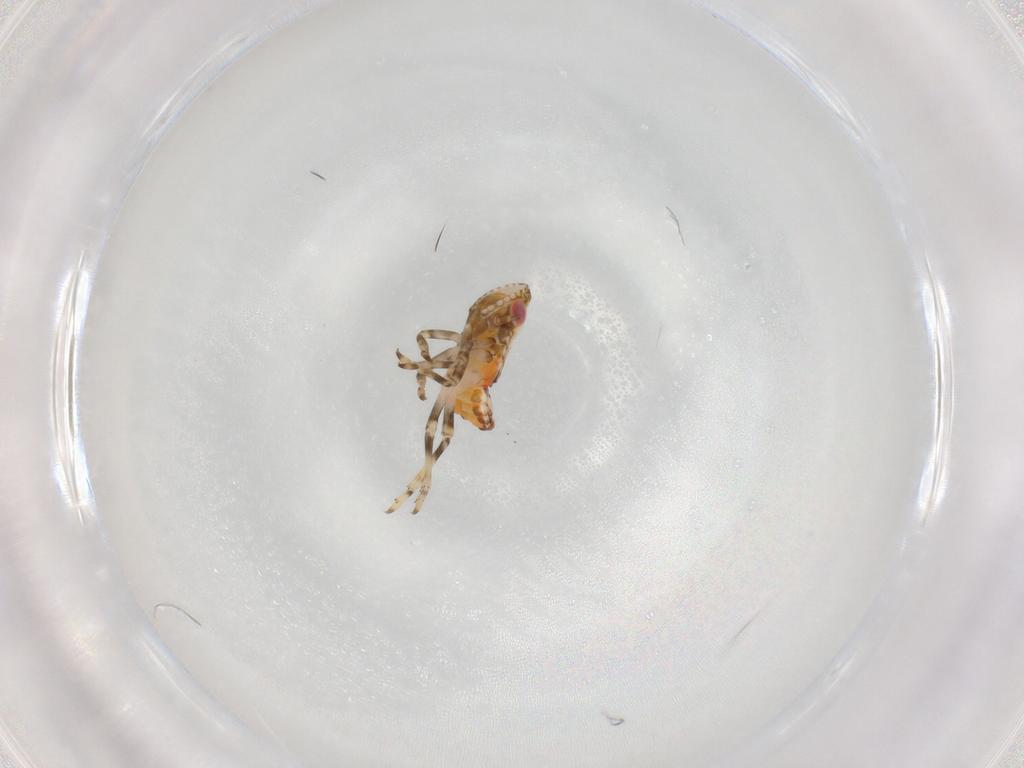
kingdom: Animalia
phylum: Arthropoda
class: Insecta
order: Hemiptera
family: Tropiduchidae
